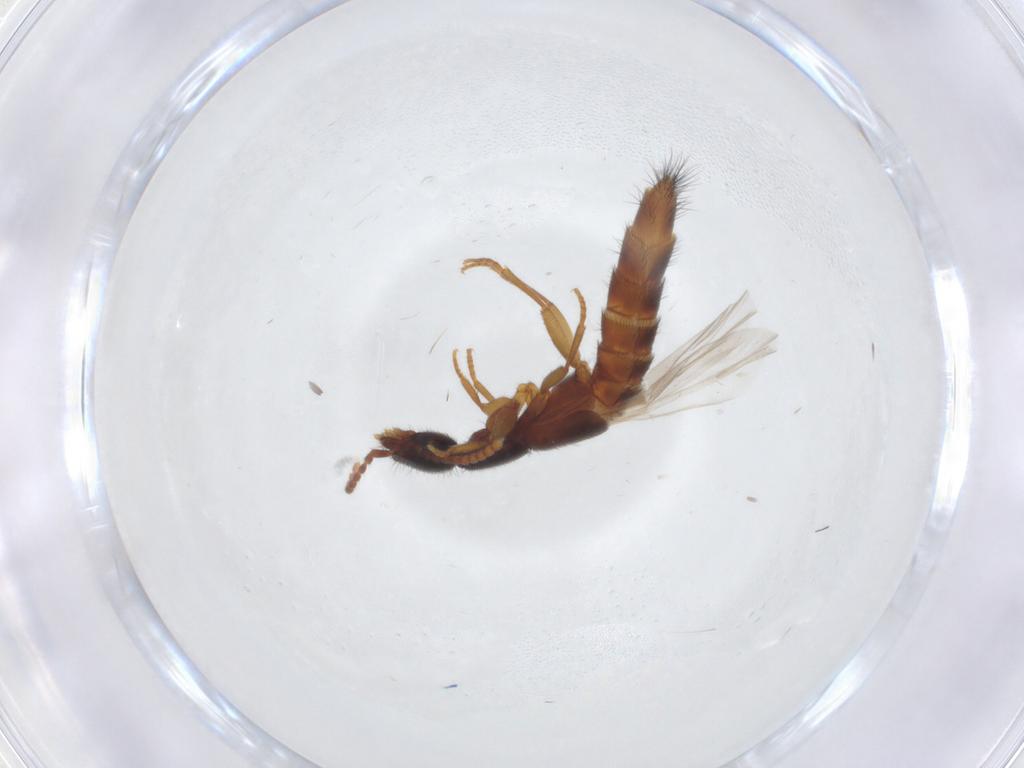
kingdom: Animalia
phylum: Arthropoda
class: Insecta
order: Coleoptera
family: Staphylinidae
